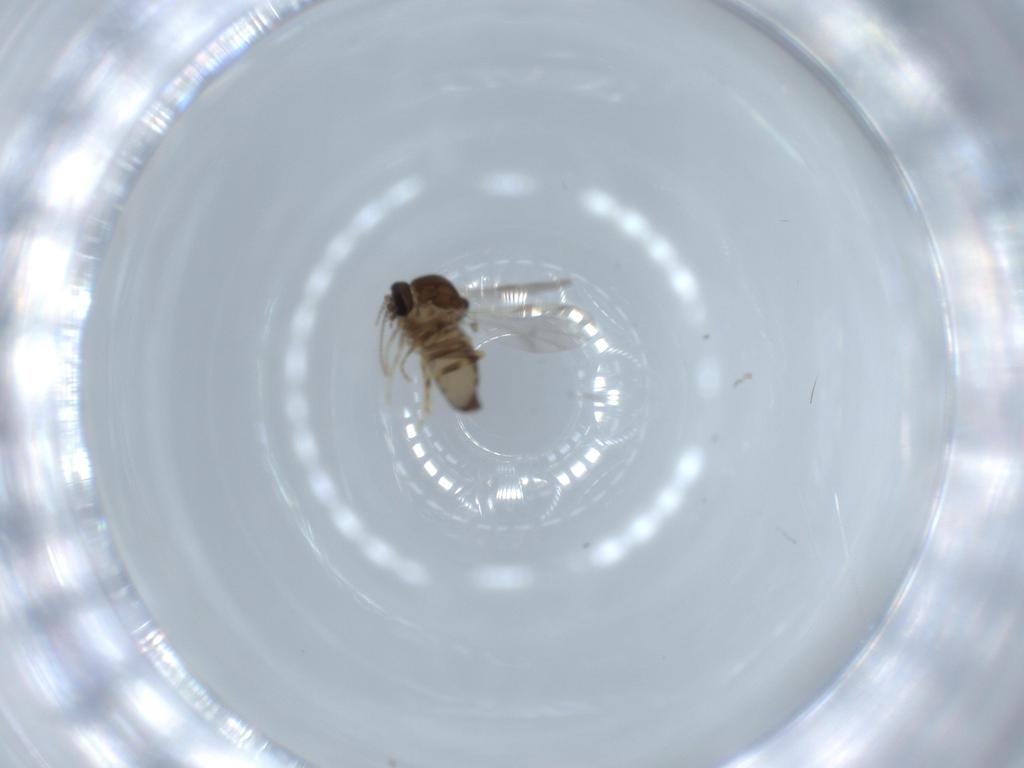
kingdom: Animalia
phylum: Arthropoda
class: Insecta
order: Diptera
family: Ceratopogonidae
